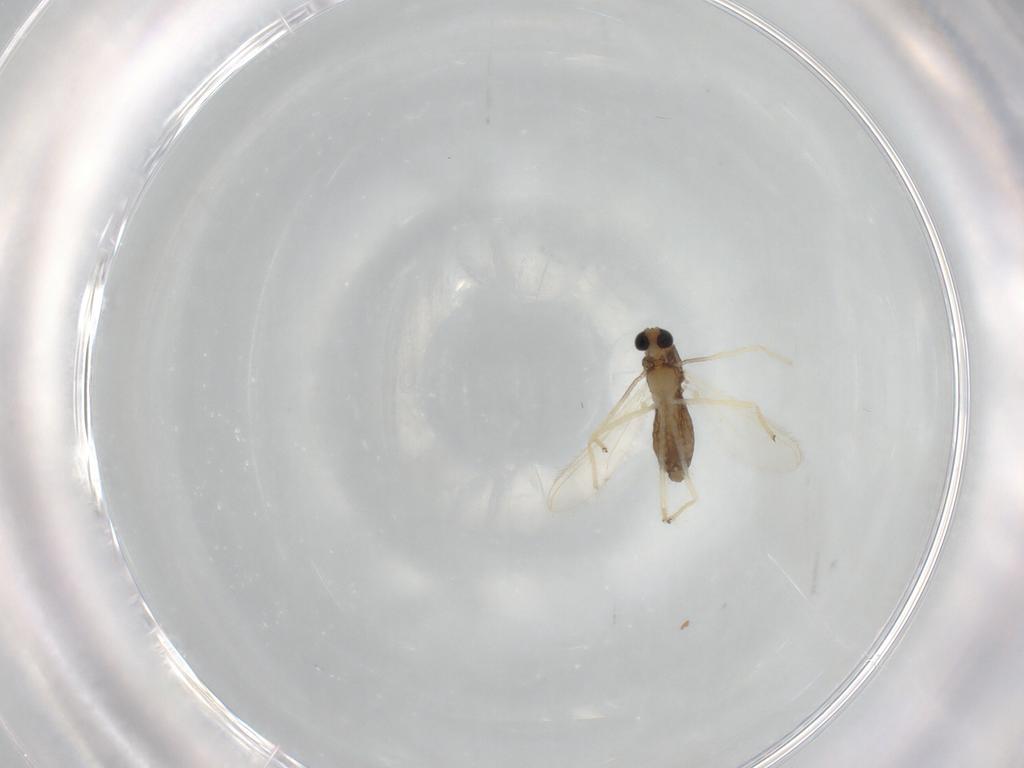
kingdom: Animalia
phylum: Arthropoda
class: Insecta
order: Diptera
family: Chironomidae
